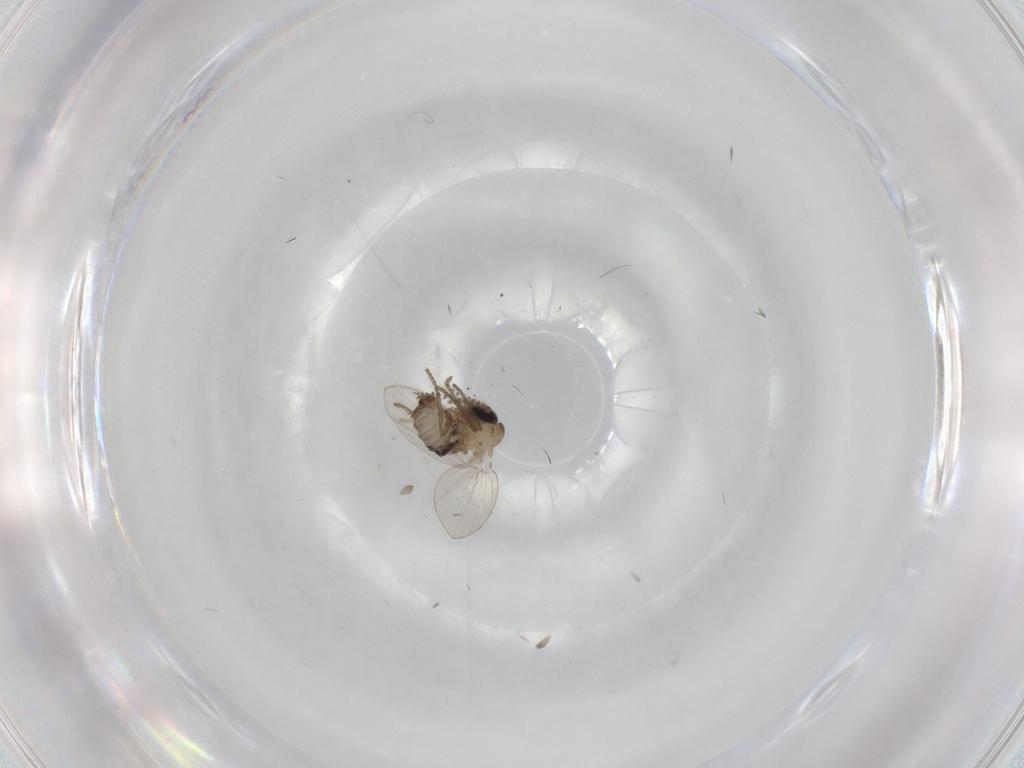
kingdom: Animalia
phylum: Arthropoda
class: Insecta
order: Diptera
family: Psychodidae
